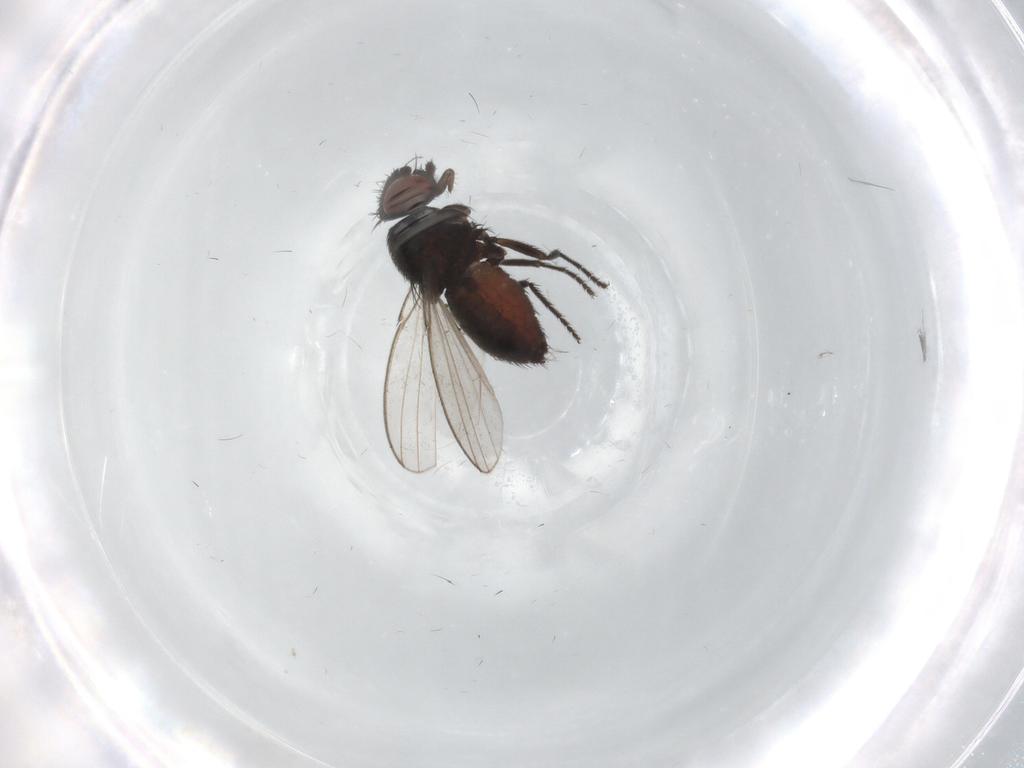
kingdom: Animalia
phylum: Arthropoda
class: Insecta
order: Diptera
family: Milichiidae
